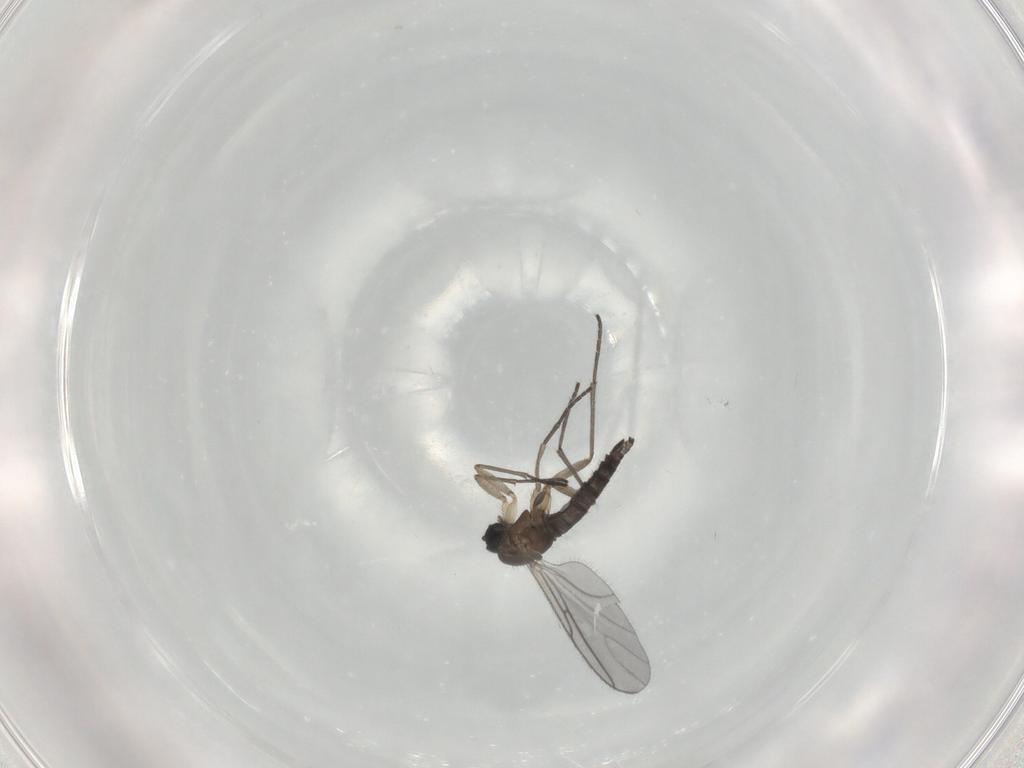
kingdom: Animalia
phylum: Arthropoda
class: Insecta
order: Diptera
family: Sciaridae
